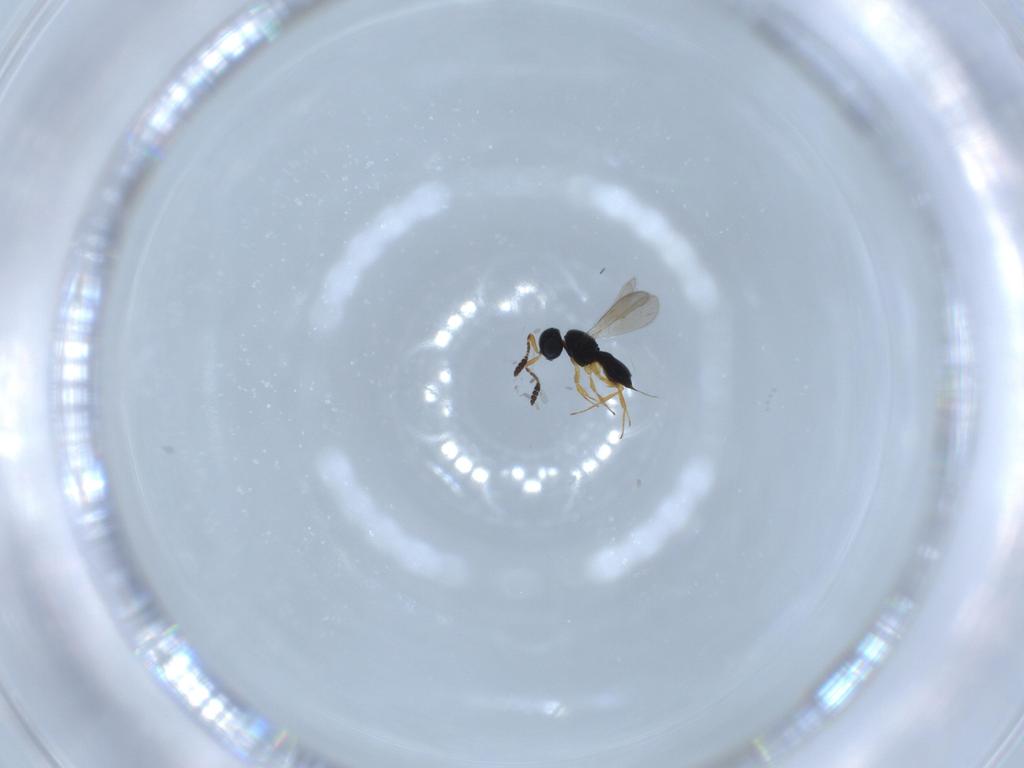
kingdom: Animalia
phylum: Arthropoda
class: Insecta
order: Hymenoptera
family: Scelionidae
